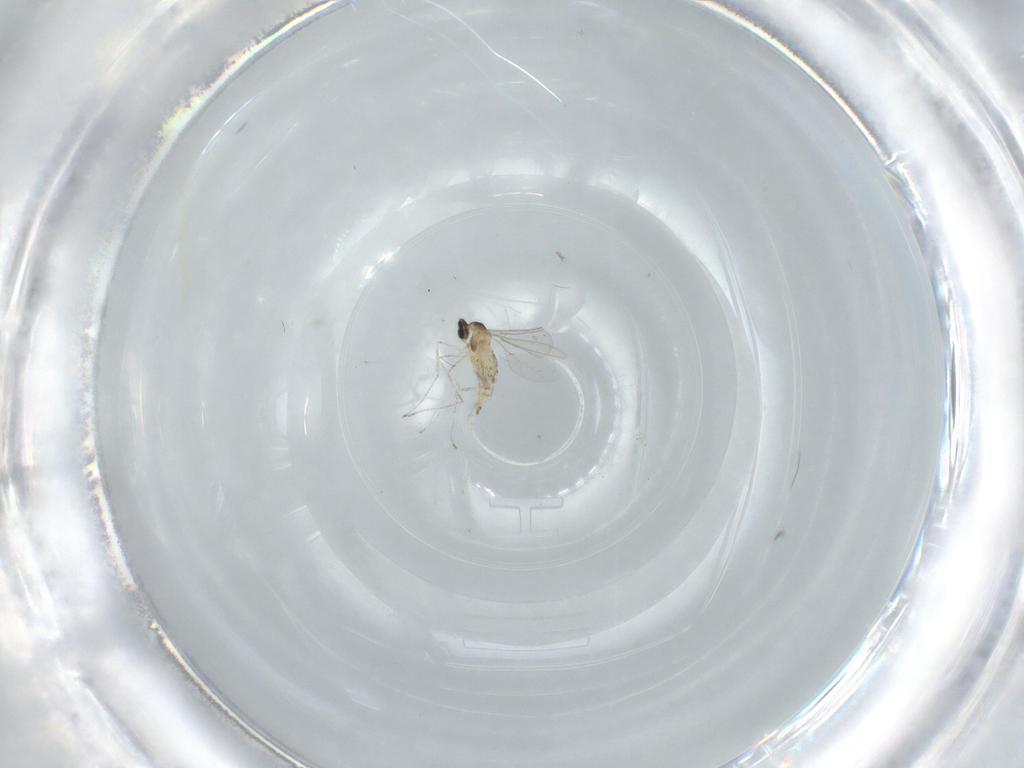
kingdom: Animalia
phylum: Arthropoda
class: Insecta
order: Diptera
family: Cecidomyiidae
